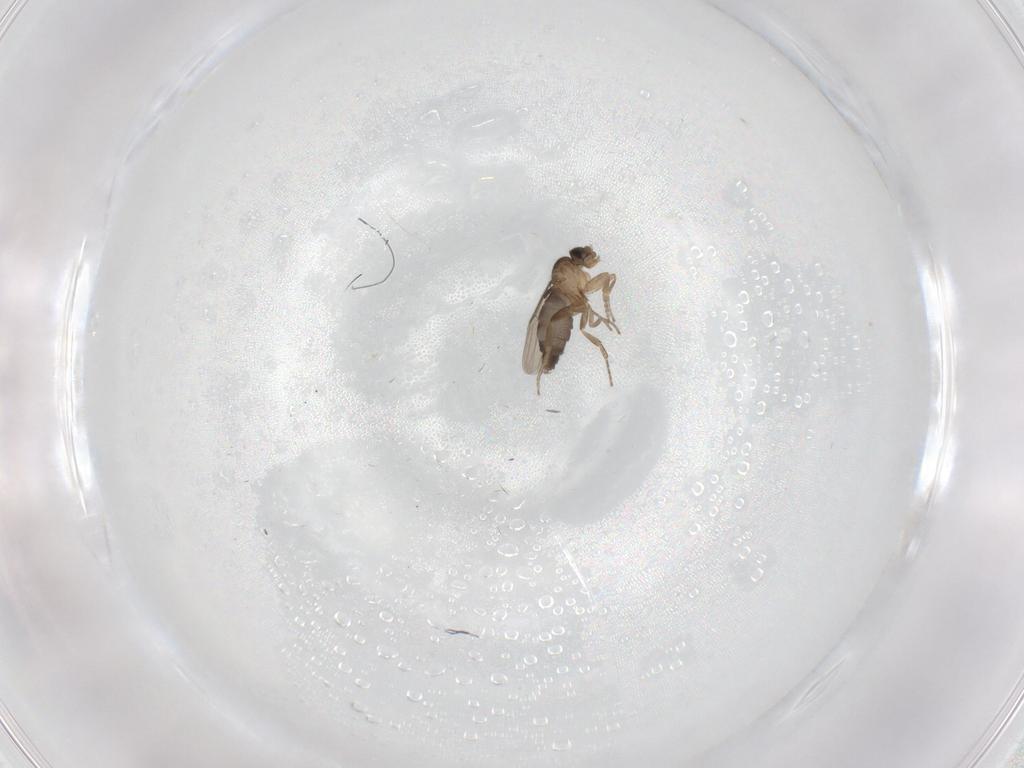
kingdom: Animalia
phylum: Arthropoda
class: Insecta
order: Diptera
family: Phoridae
